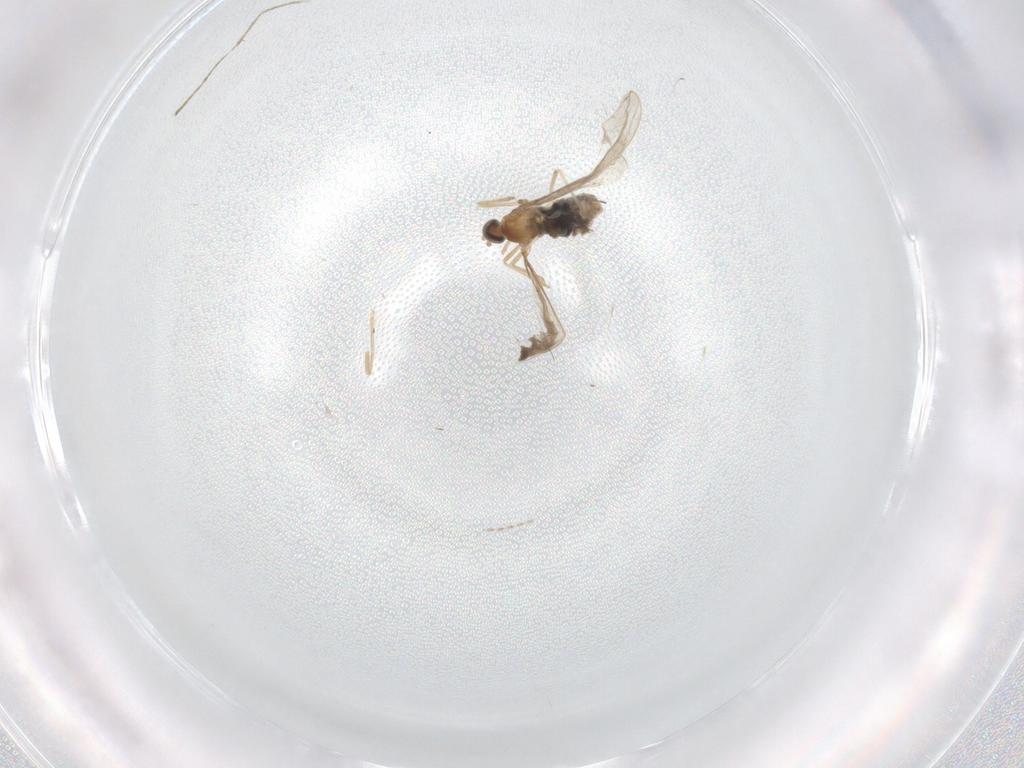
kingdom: Animalia
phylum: Arthropoda
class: Insecta
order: Diptera
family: Cecidomyiidae
